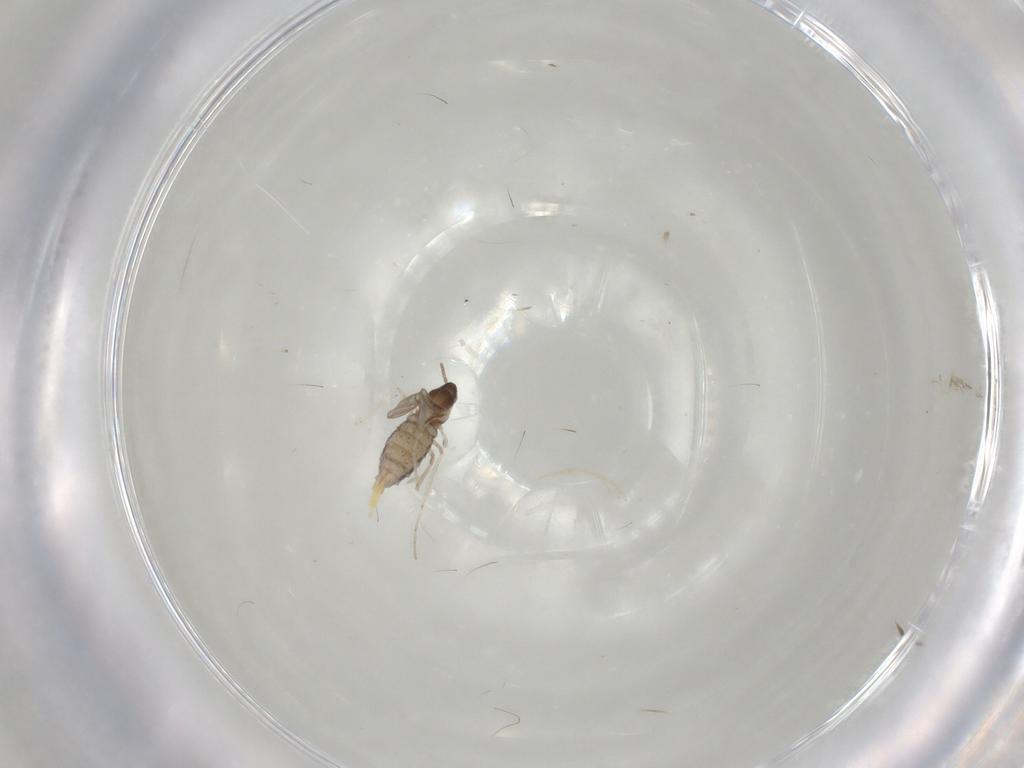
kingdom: Animalia
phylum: Arthropoda
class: Insecta
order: Diptera
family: Cecidomyiidae
